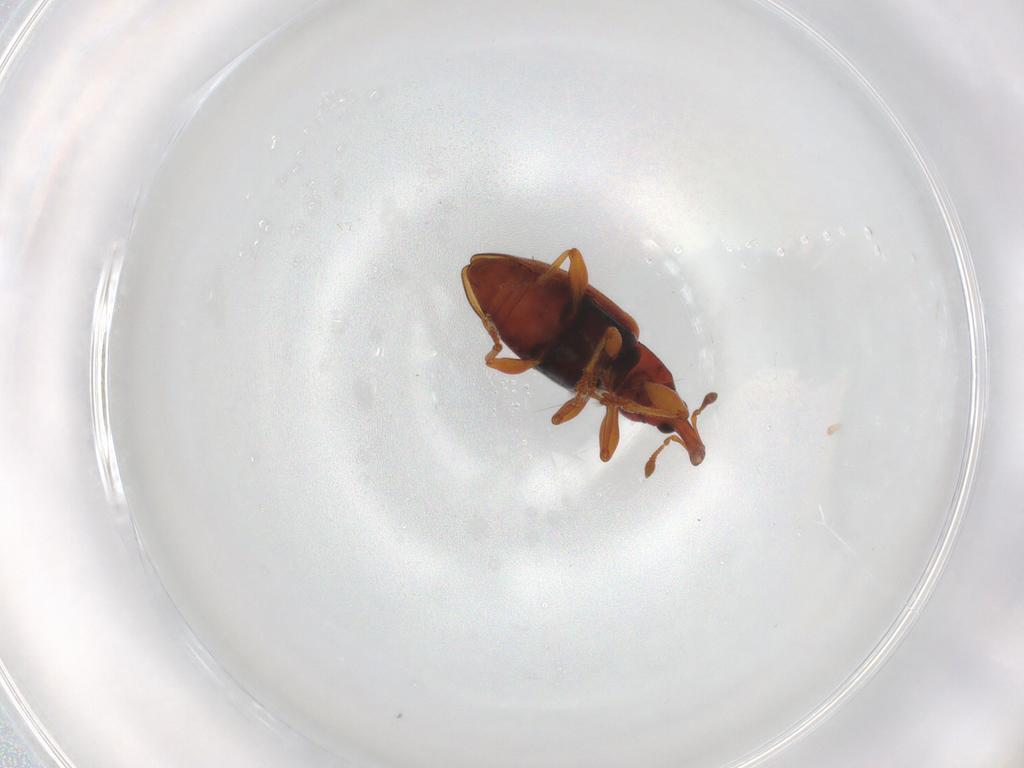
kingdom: Animalia
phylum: Arthropoda
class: Insecta
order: Coleoptera
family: Curculionidae
